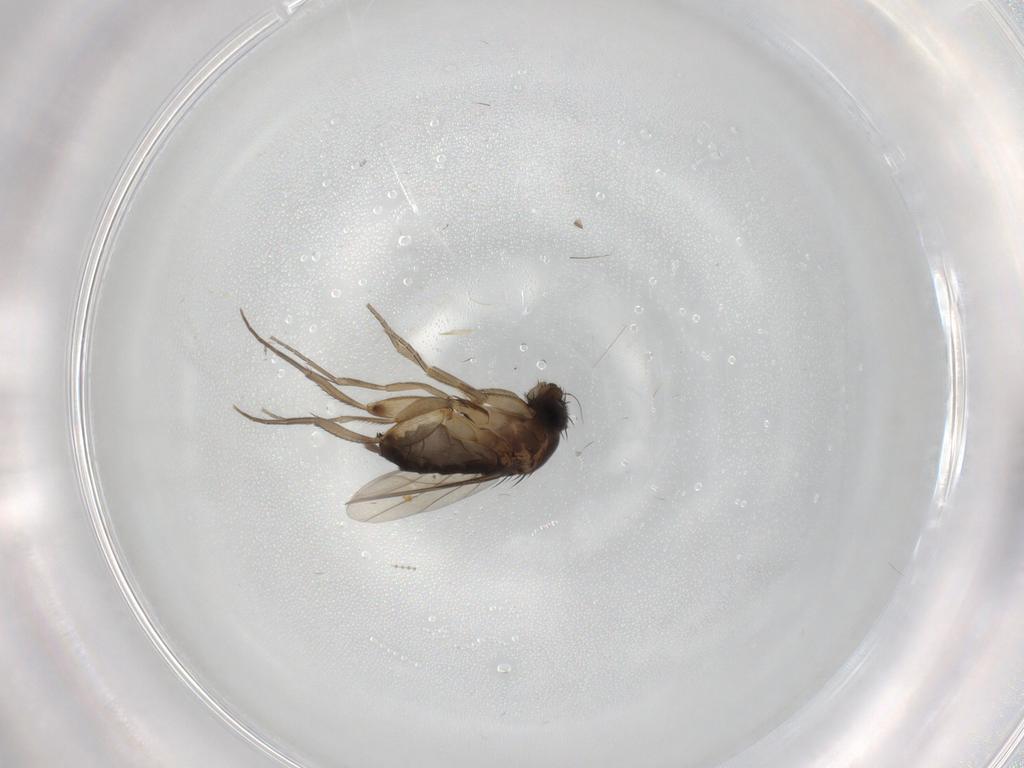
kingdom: Animalia
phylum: Arthropoda
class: Insecta
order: Diptera
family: Phoridae
